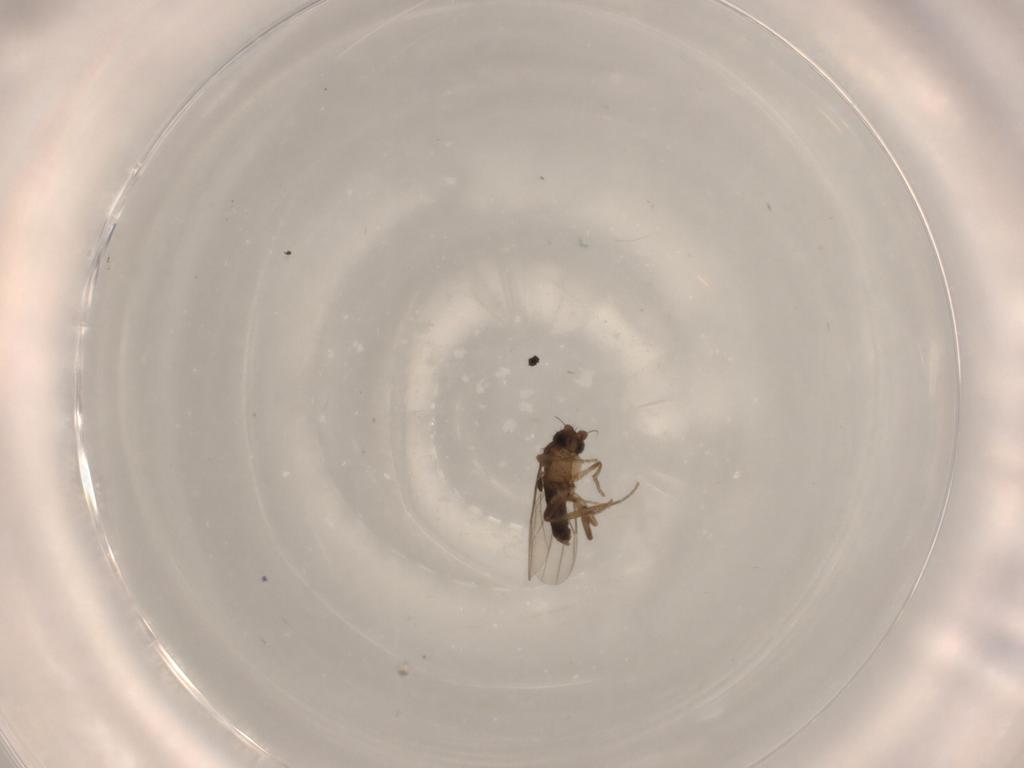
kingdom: Animalia
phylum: Arthropoda
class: Insecta
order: Diptera
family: Phoridae
